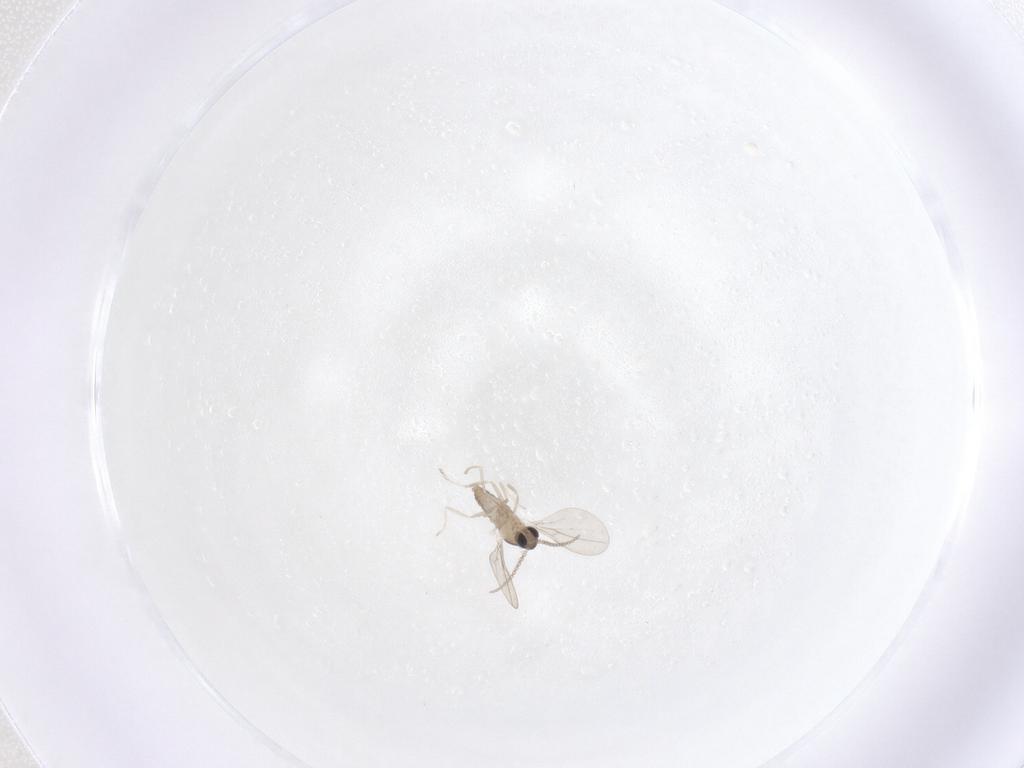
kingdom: Animalia
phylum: Arthropoda
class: Insecta
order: Diptera
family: Cecidomyiidae
